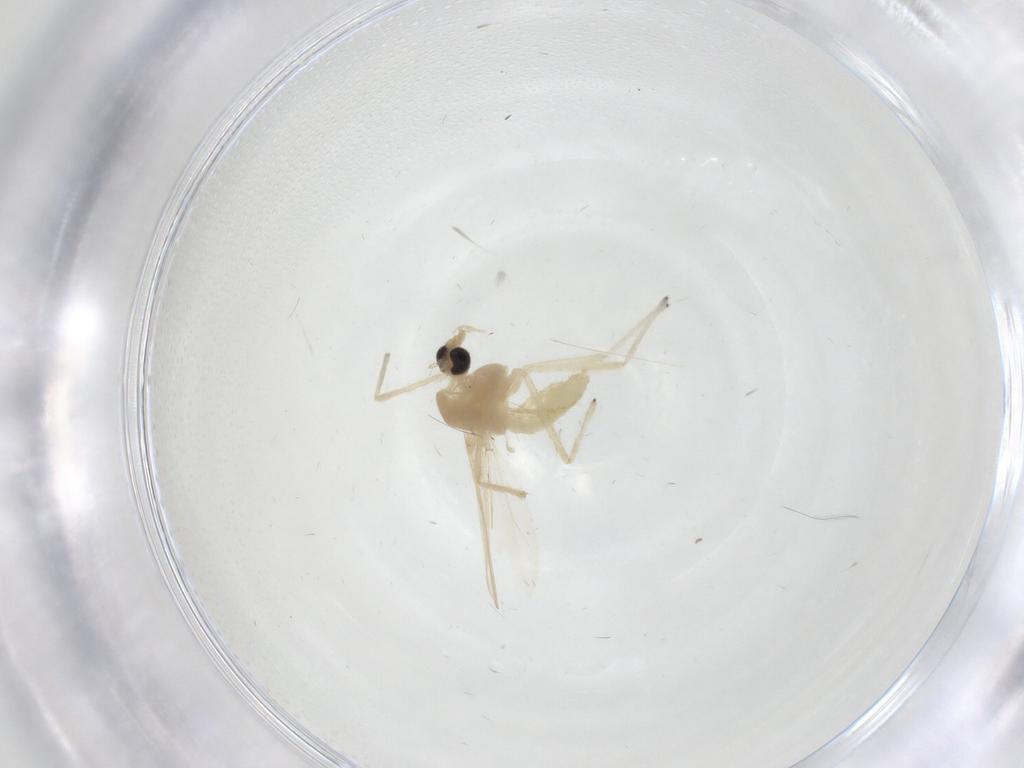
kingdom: Animalia
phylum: Arthropoda
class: Insecta
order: Diptera
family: Chironomidae
